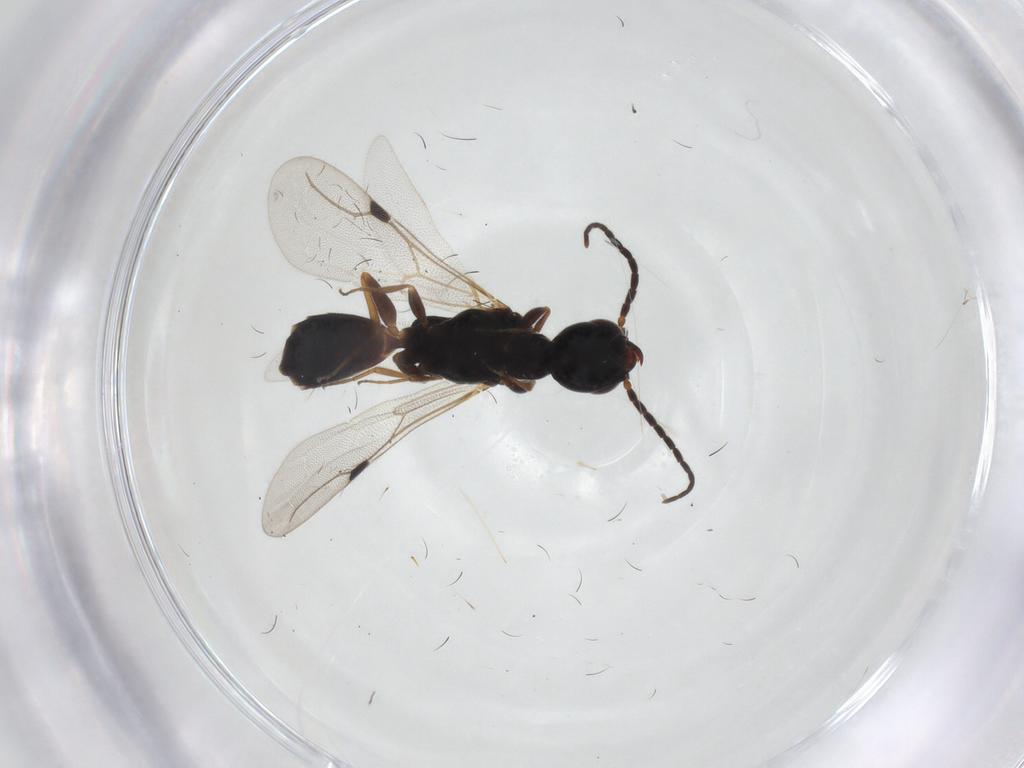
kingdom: Animalia
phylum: Arthropoda
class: Insecta
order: Hymenoptera
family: Bethylidae
